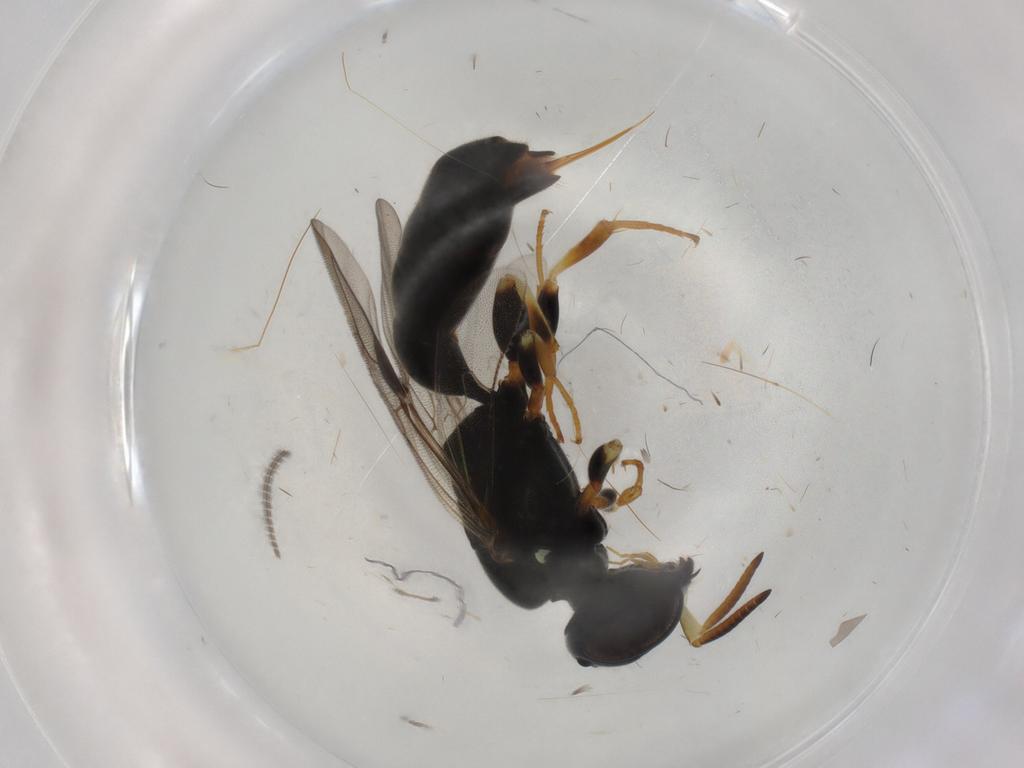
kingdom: Animalia
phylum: Arthropoda
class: Insecta
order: Hymenoptera
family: Pemphredonidae
